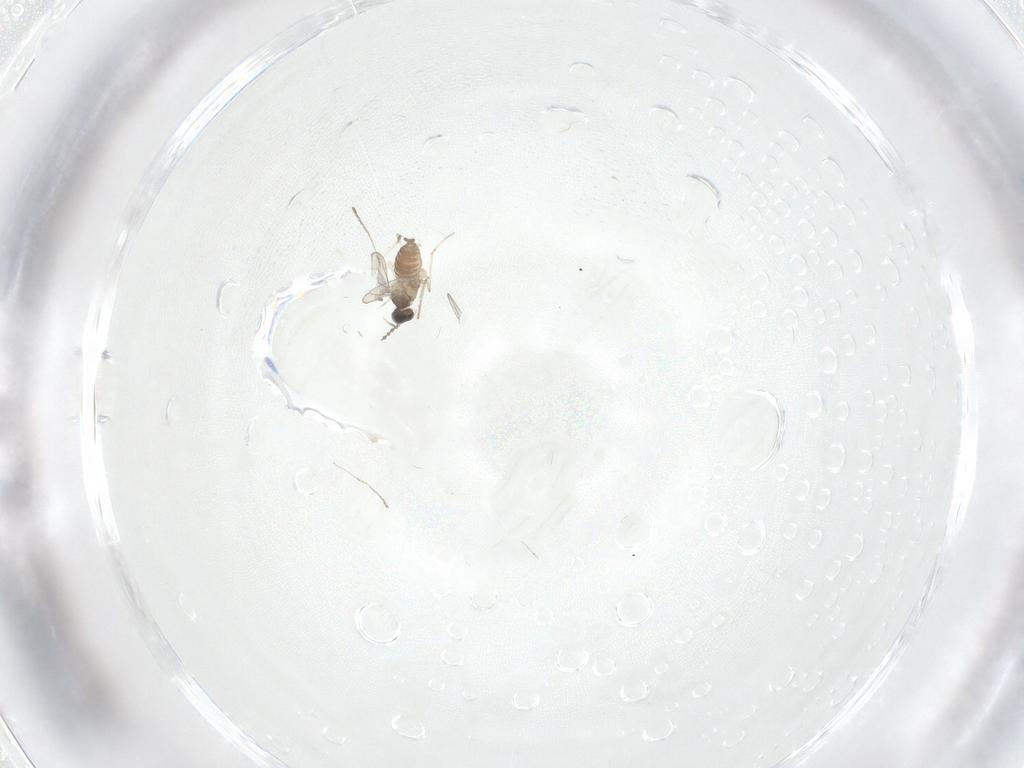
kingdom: Animalia
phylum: Arthropoda
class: Insecta
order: Diptera
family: Cecidomyiidae
